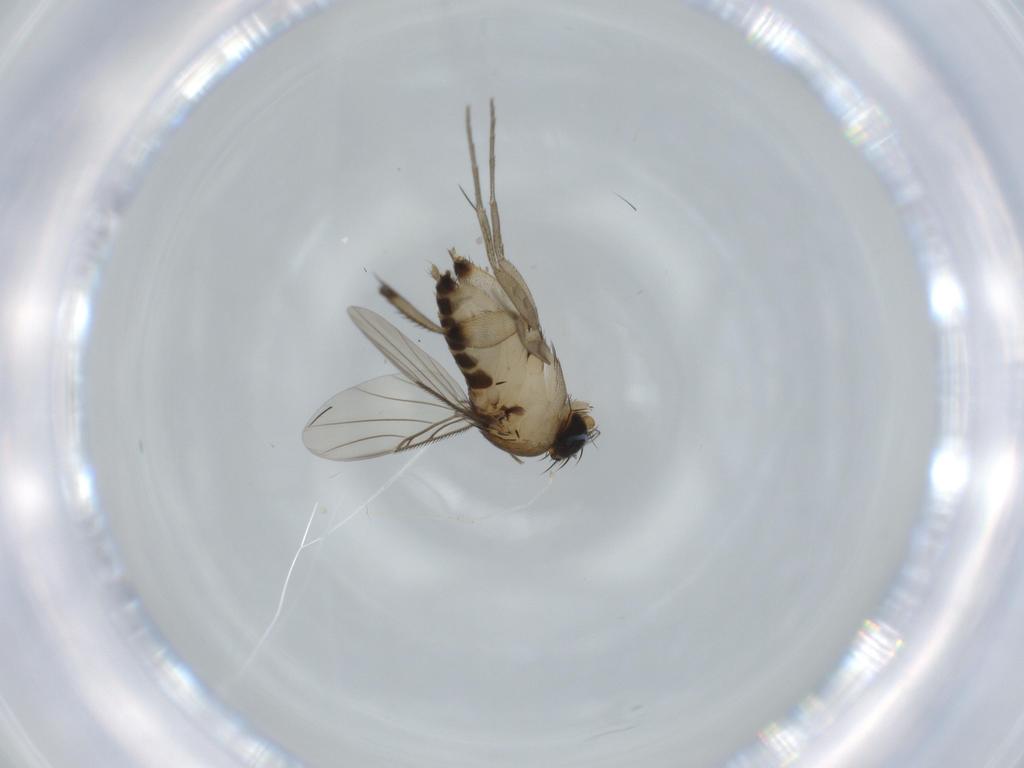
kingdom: Animalia
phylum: Arthropoda
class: Insecta
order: Diptera
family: Phoridae
